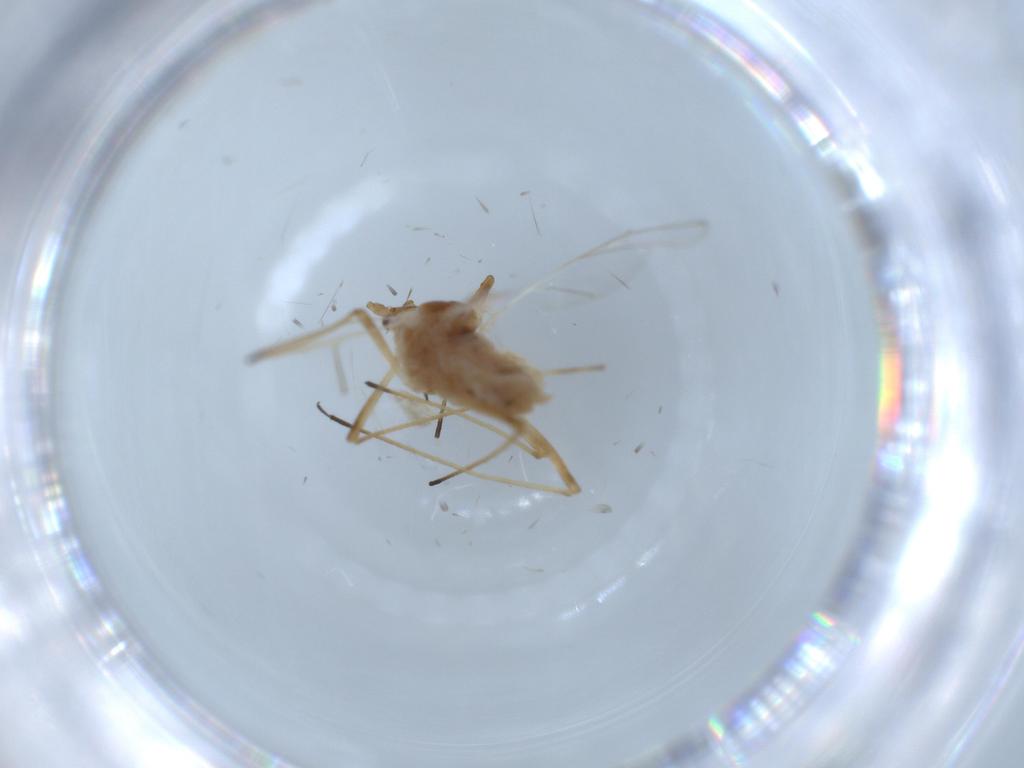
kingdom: Animalia
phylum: Arthropoda
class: Insecta
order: Hemiptera
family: Aphididae
